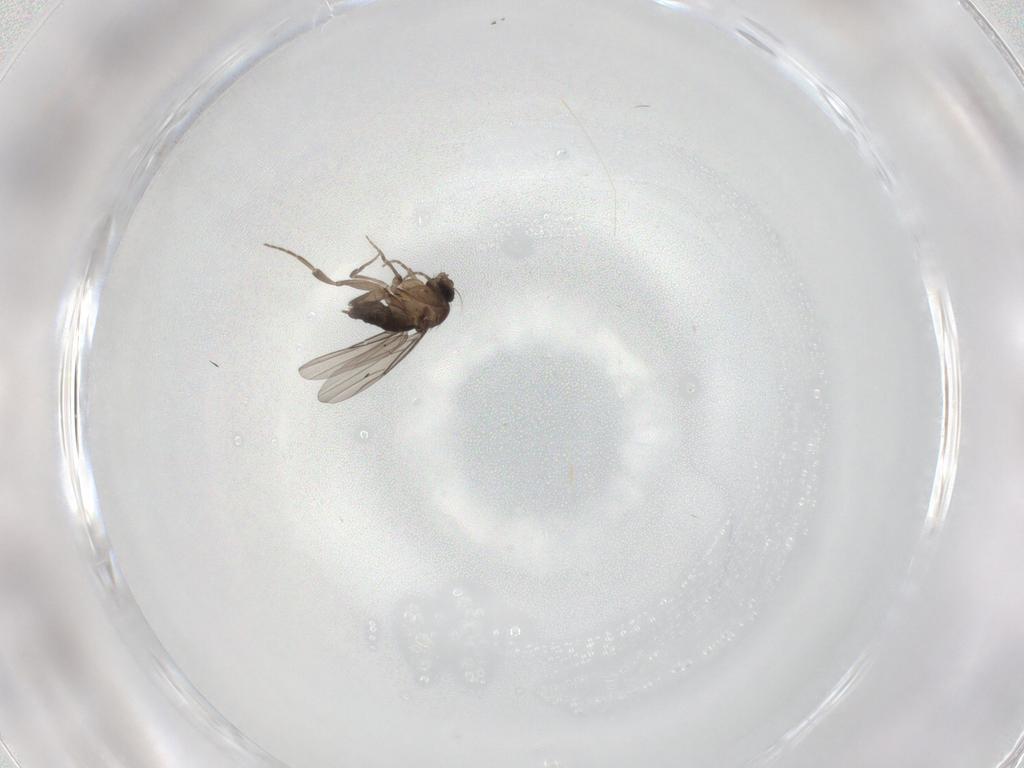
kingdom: Animalia
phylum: Arthropoda
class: Insecta
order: Diptera
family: Phoridae
